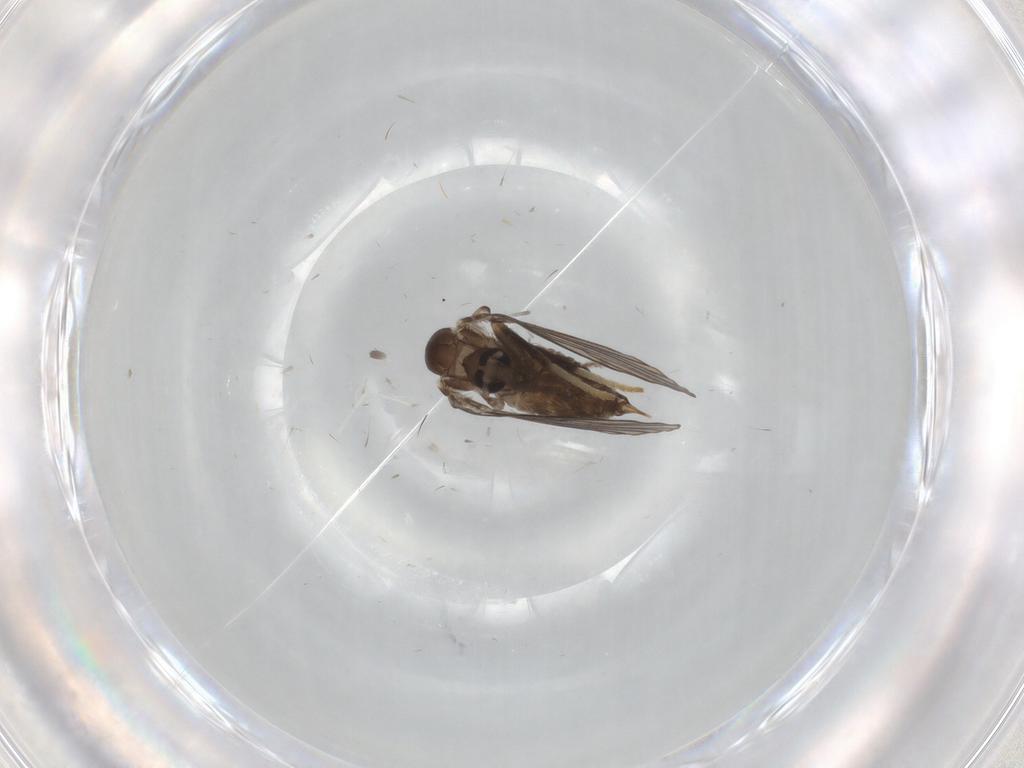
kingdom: Animalia
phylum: Arthropoda
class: Insecta
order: Diptera
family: Psychodidae
